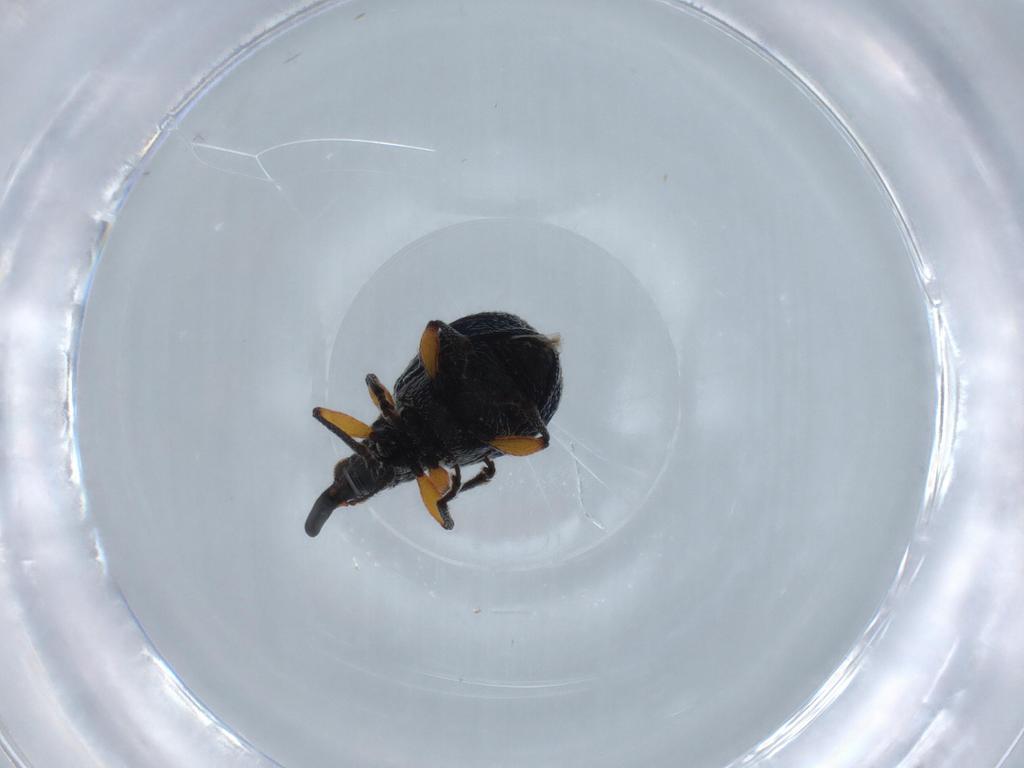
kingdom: Animalia
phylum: Arthropoda
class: Insecta
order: Coleoptera
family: Apionidae
